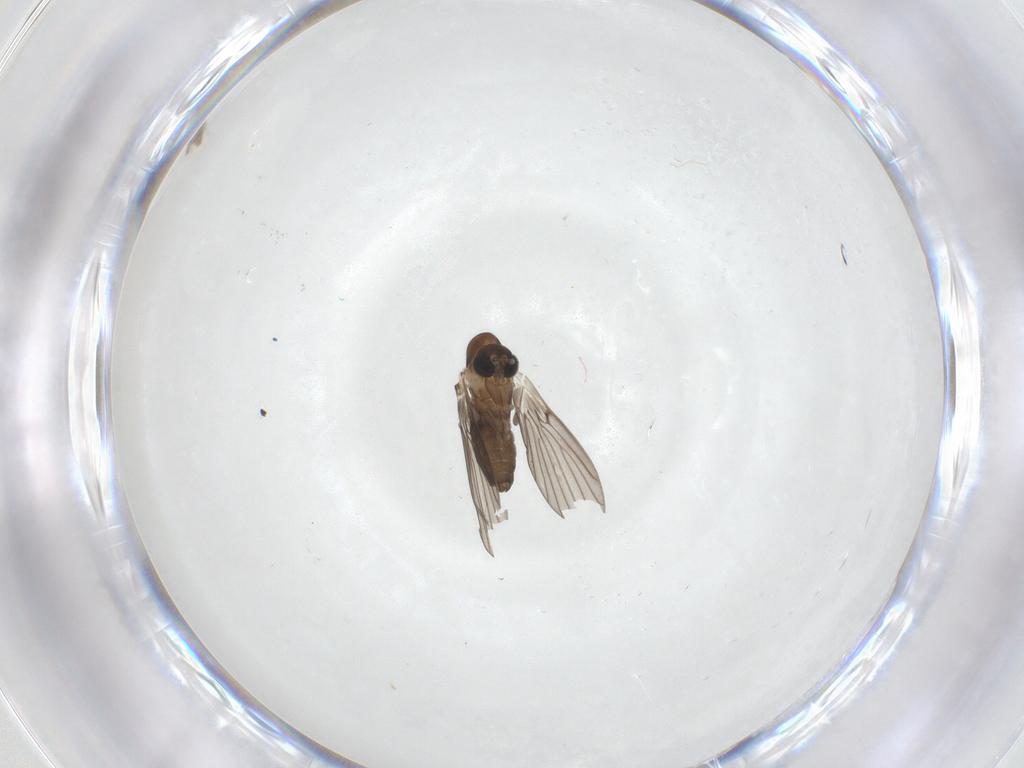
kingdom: Animalia
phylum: Arthropoda
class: Insecta
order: Diptera
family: Psychodidae
